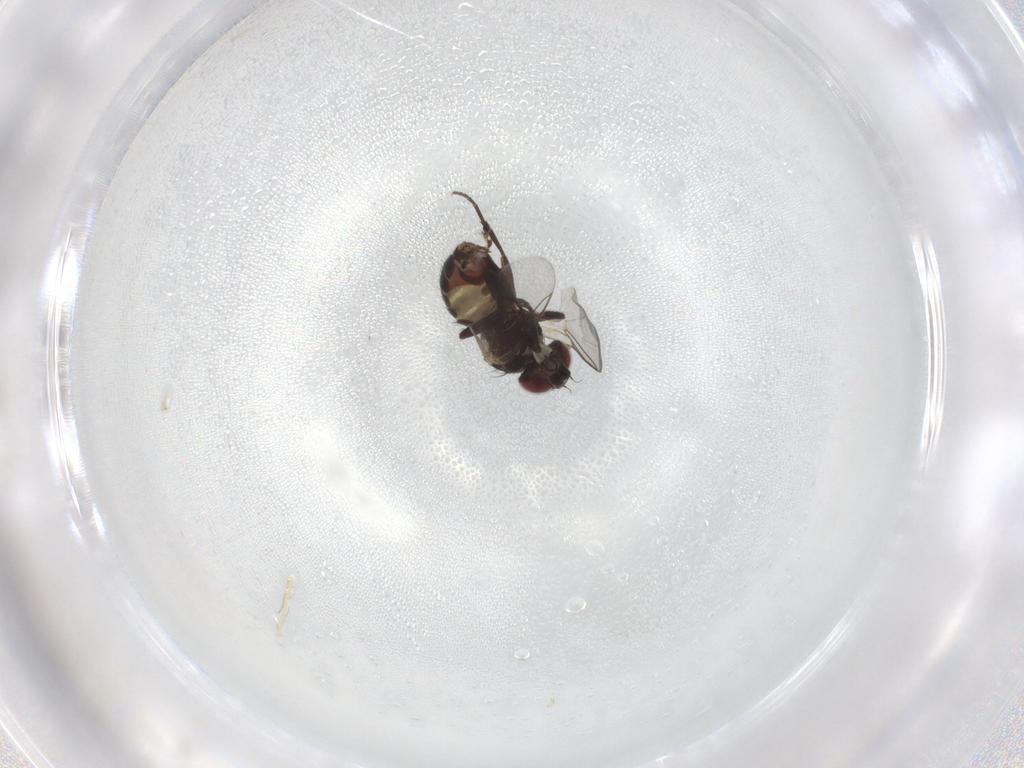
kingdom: Animalia
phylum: Arthropoda
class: Insecta
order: Diptera
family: Agromyzidae
